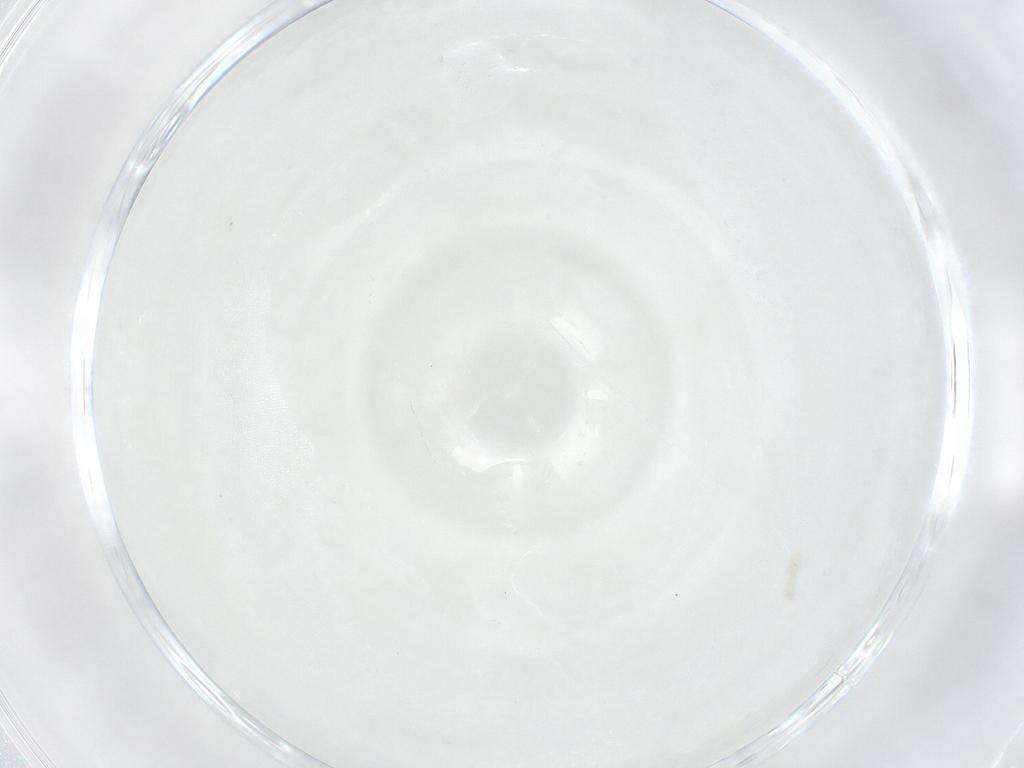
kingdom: Animalia
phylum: Arthropoda
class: Collembola
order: Entomobryomorpha
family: Isotomidae
